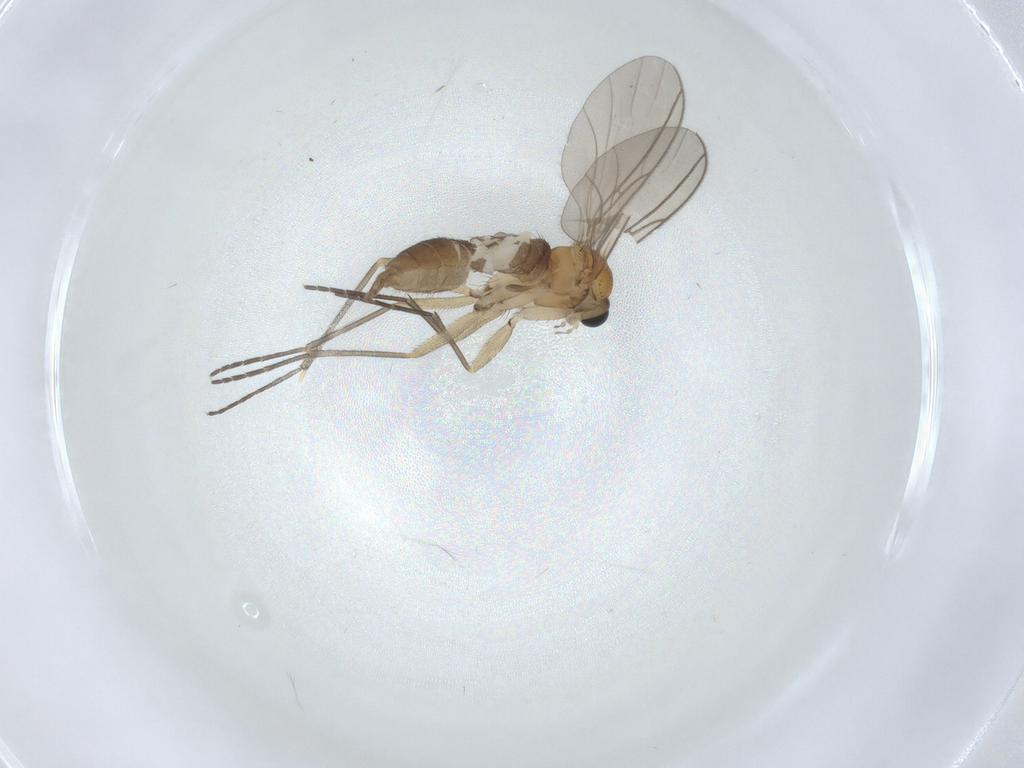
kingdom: Animalia
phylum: Arthropoda
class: Insecta
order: Diptera
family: Sciaridae
